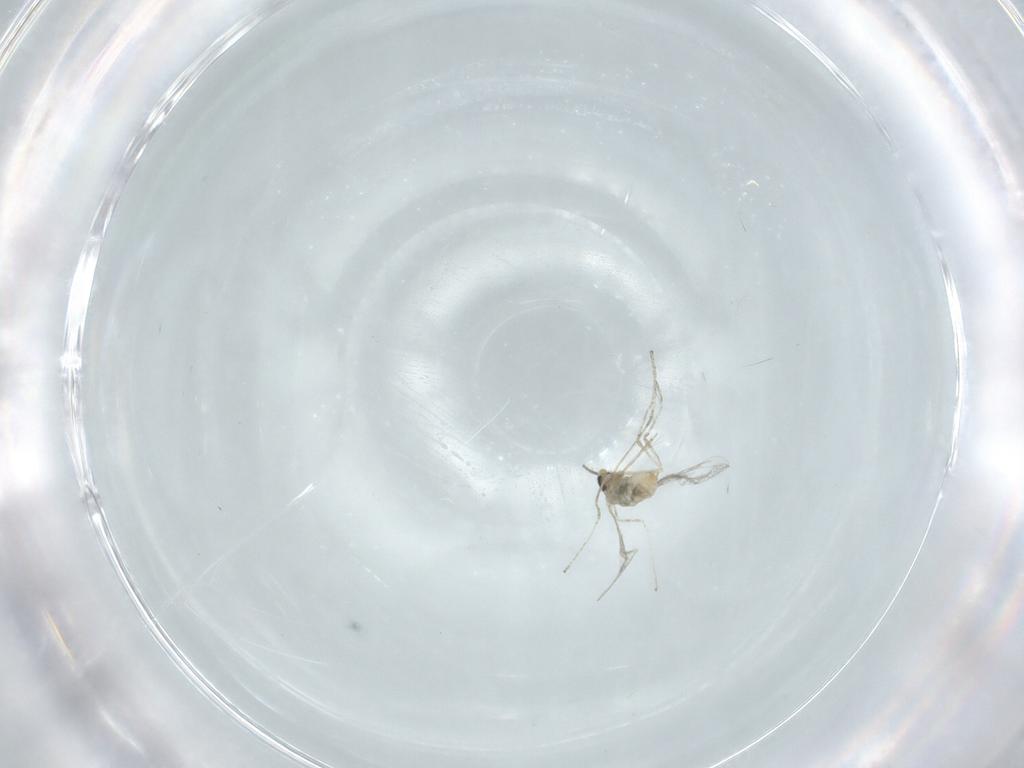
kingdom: Animalia
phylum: Arthropoda
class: Insecta
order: Diptera
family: Cecidomyiidae
